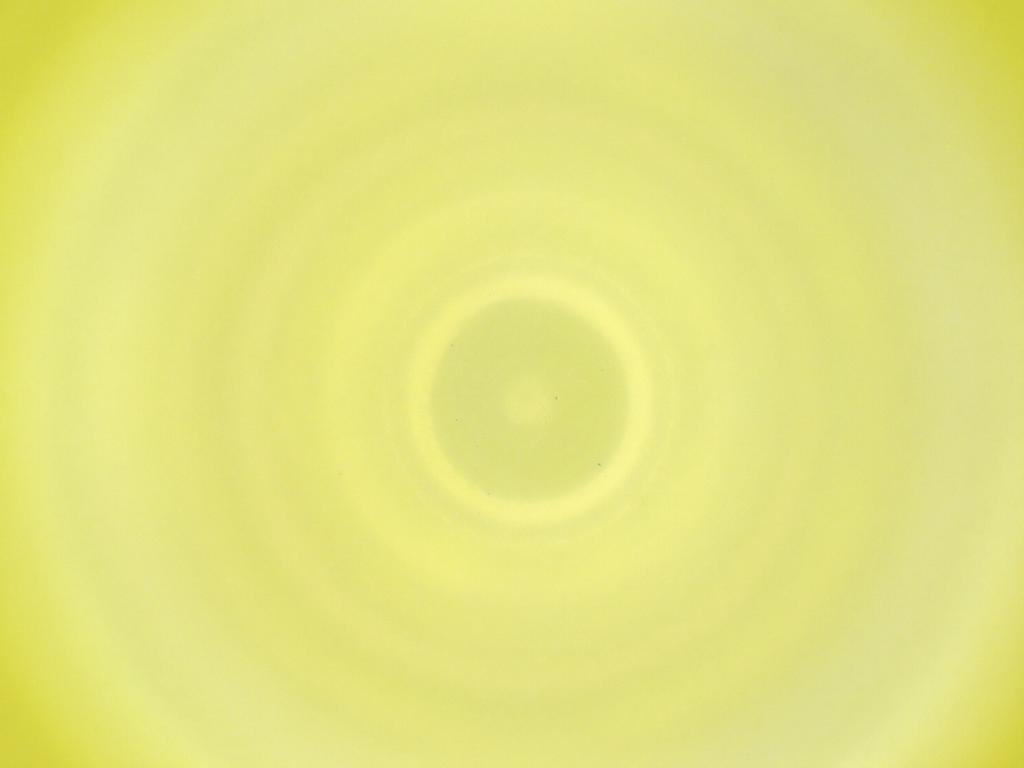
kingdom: Animalia
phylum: Arthropoda
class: Insecta
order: Diptera
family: Cecidomyiidae
